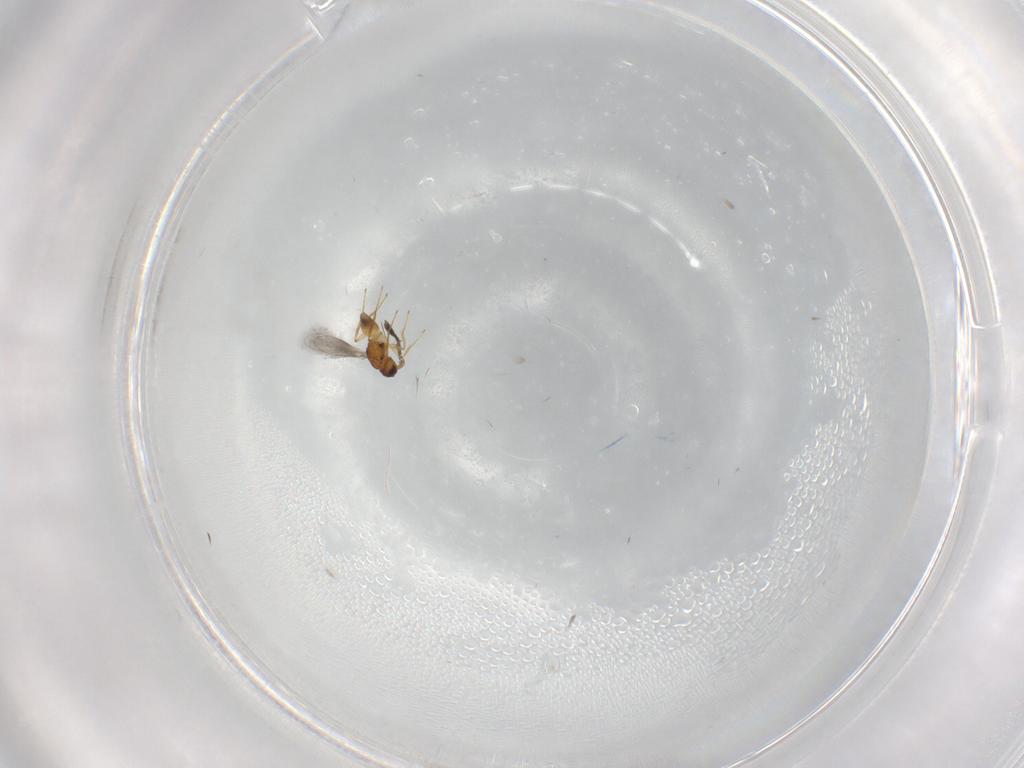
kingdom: Animalia
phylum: Arthropoda
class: Insecta
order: Hymenoptera
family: Mymaridae
